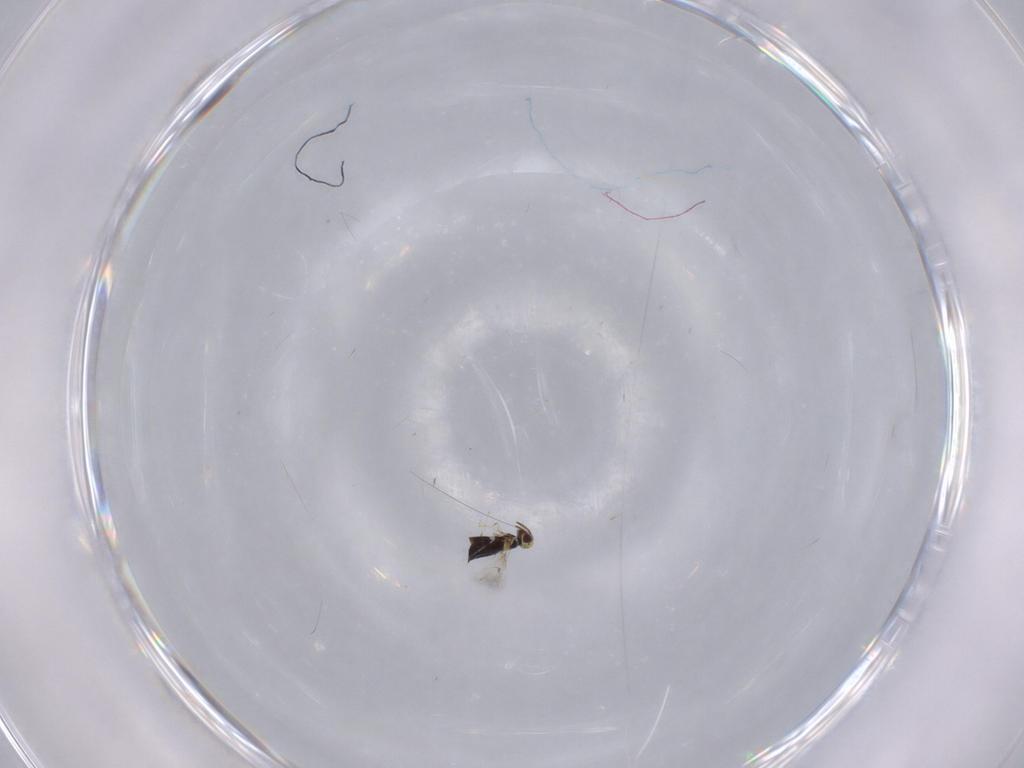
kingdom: Animalia
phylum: Arthropoda
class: Insecta
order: Hymenoptera
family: Signiphoridae
